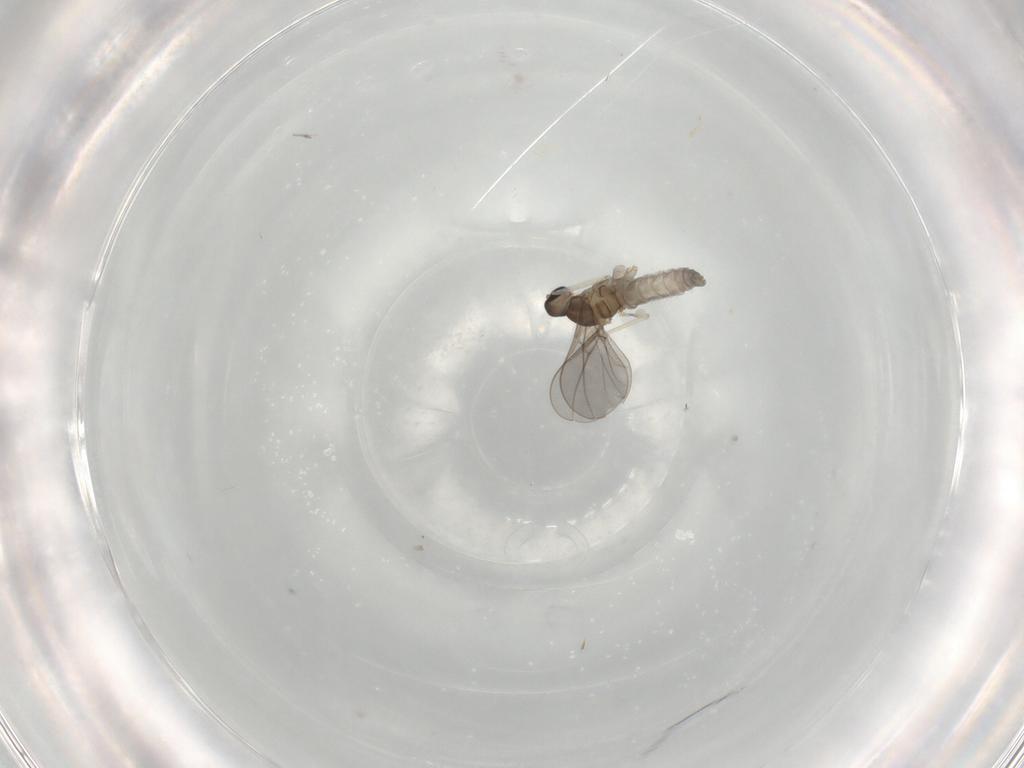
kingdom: Animalia
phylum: Arthropoda
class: Insecta
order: Diptera
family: Cecidomyiidae
